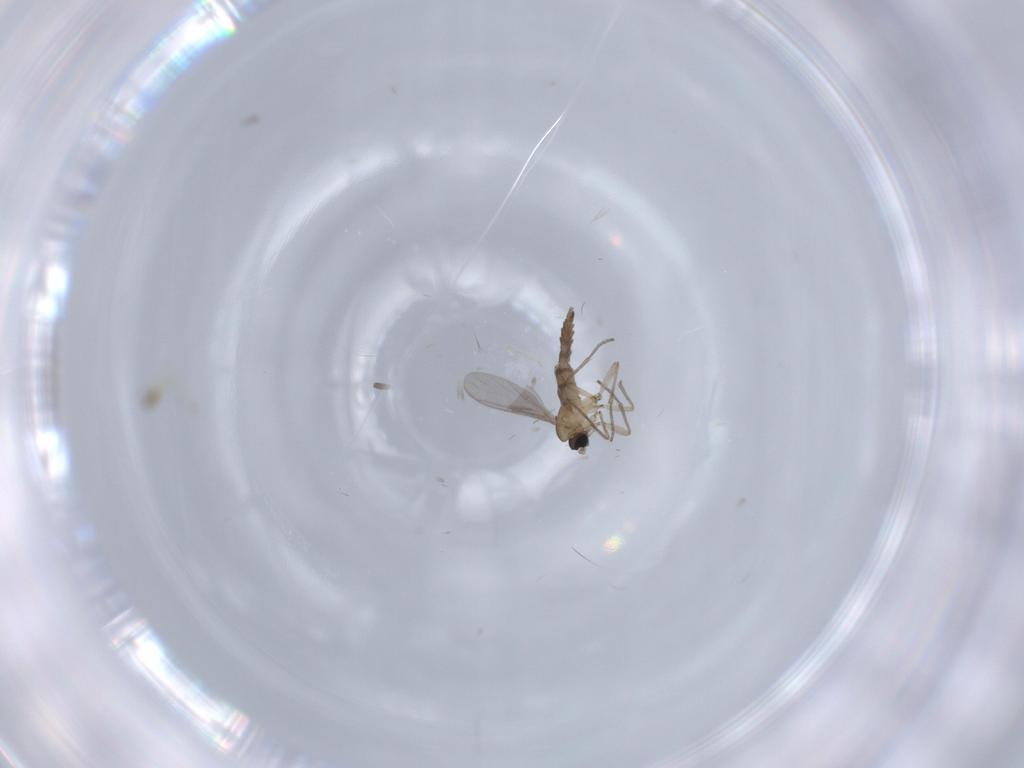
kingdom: Animalia
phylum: Arthropoda
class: Insecta
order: Diptera
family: Sciaridae
